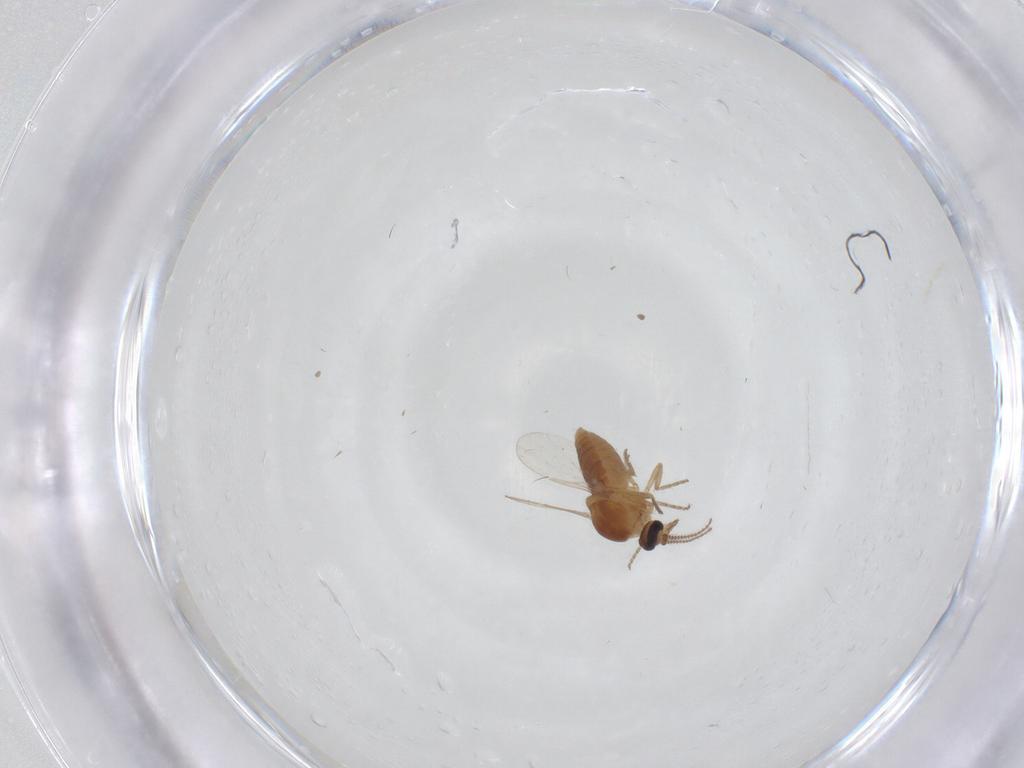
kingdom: Animalia
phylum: Arthropoda
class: Insecta
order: Diptera
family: Ceratopogonidae
